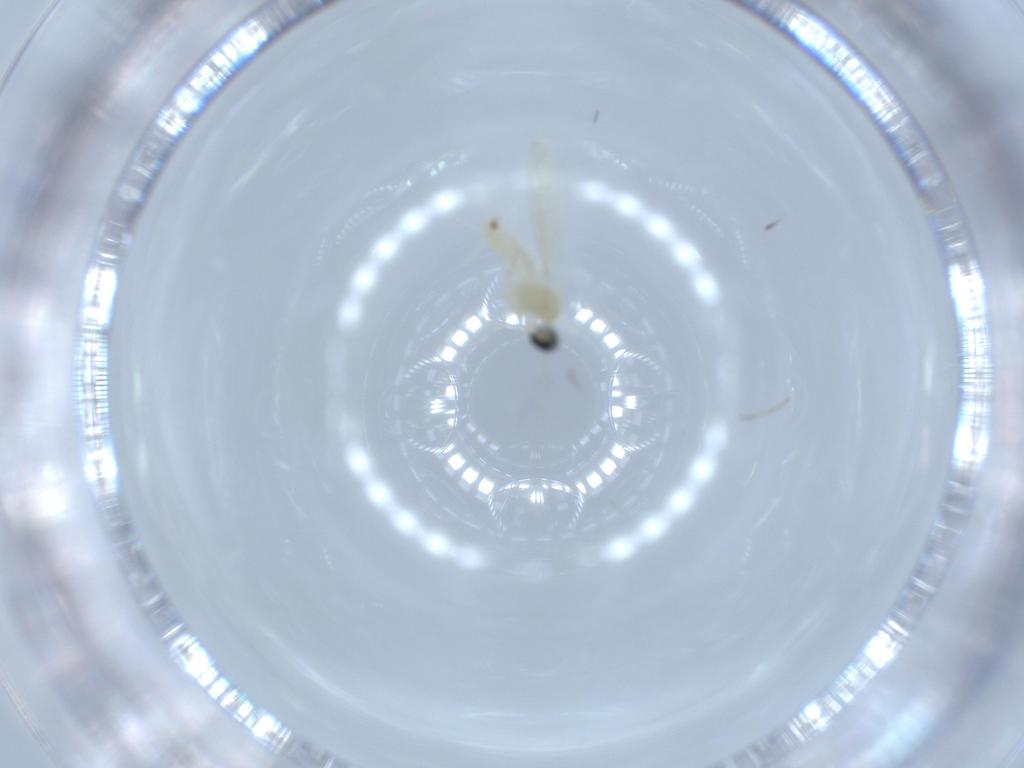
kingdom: Animalia
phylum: Arthropoda
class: Insecta
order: Diptera
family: Cecidomyiidae
